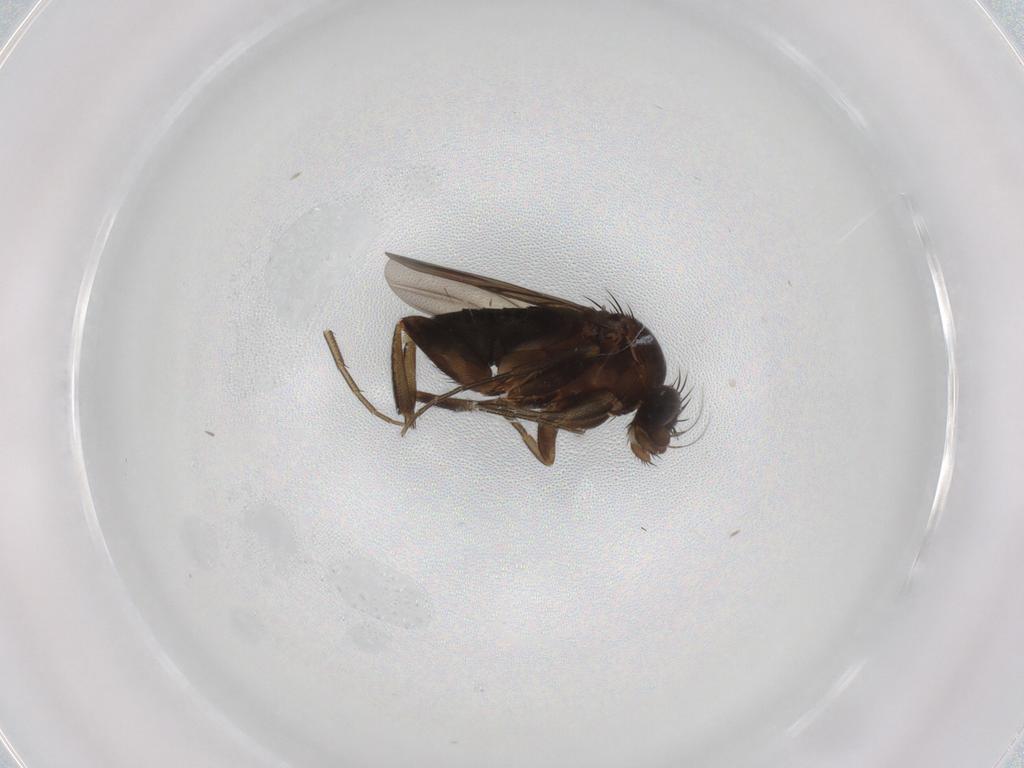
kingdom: Animalia
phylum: Arthropoda
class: Insecta
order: Diptera
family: Phoridae
